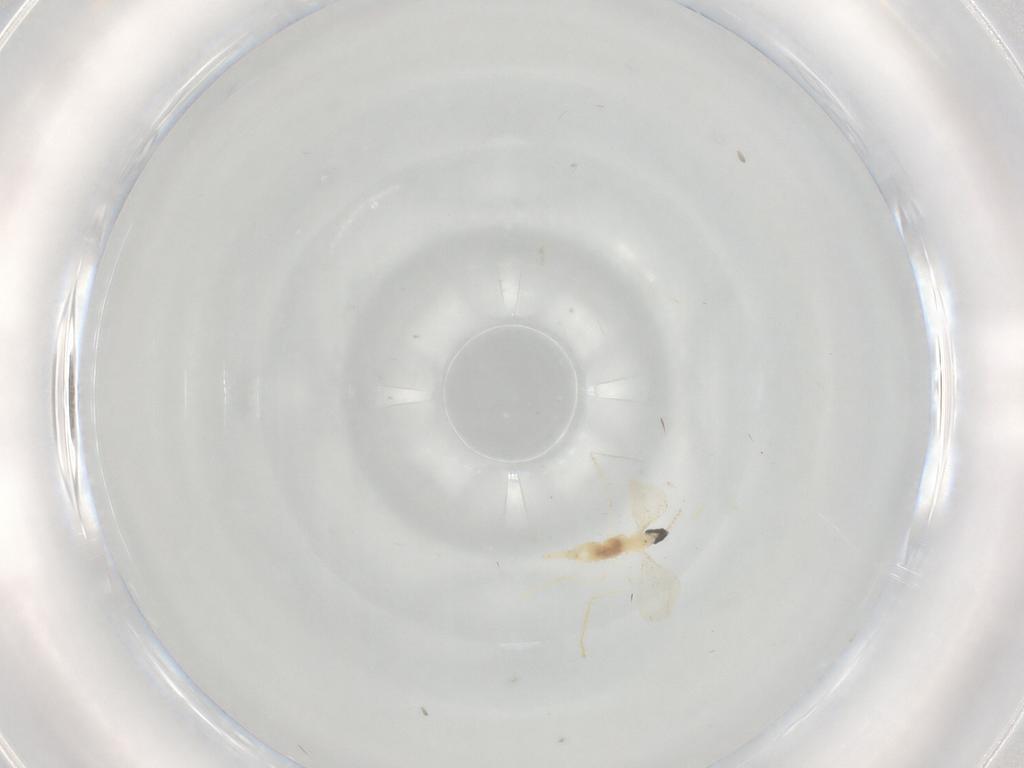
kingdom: Animalia
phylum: Arthropoda
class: Insecta
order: Diptera
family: Cecidomyiidae
